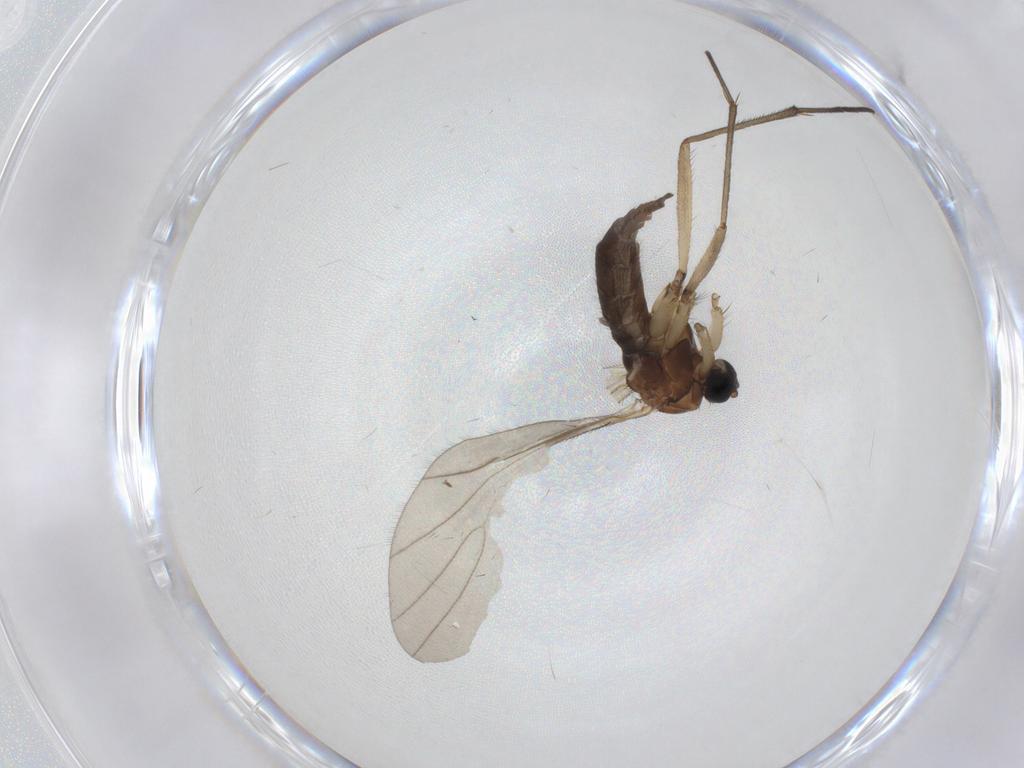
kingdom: Animalia
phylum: Arthropoda
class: Insecta
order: Diptera
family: Sciaridae
